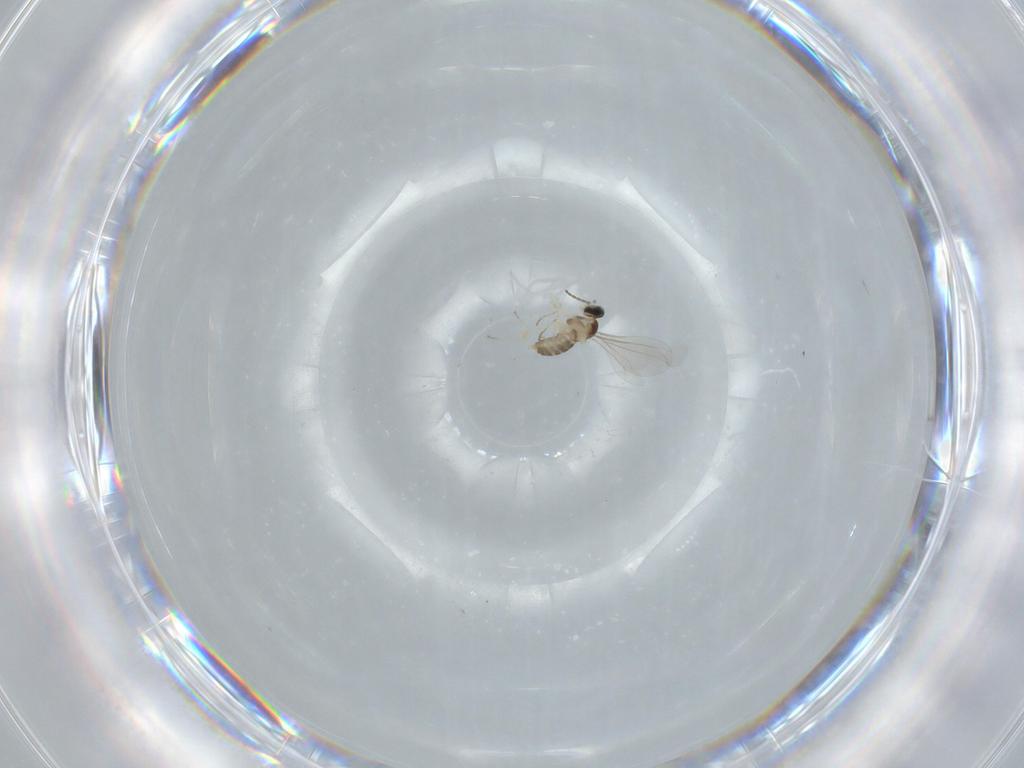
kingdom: Animalia
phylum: Arthropoda
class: Insecta
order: Diptera
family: Cecidomyiidae
